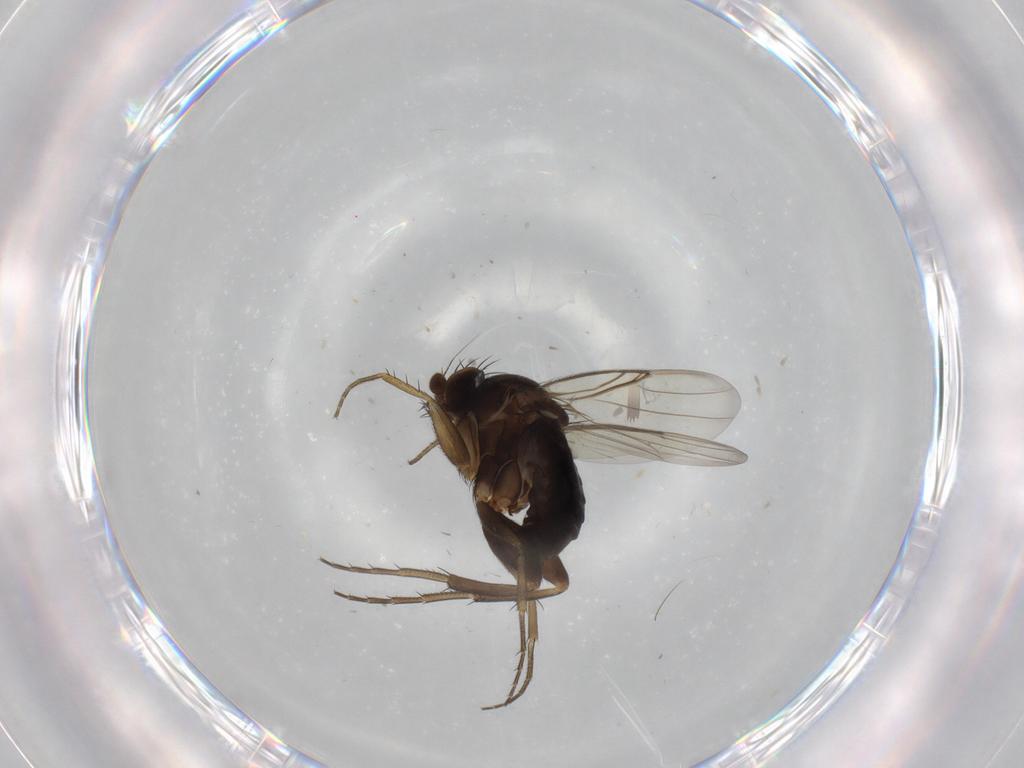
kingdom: Animalia
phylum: Arthropoda
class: Insecta
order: Diptera
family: Phoridae
